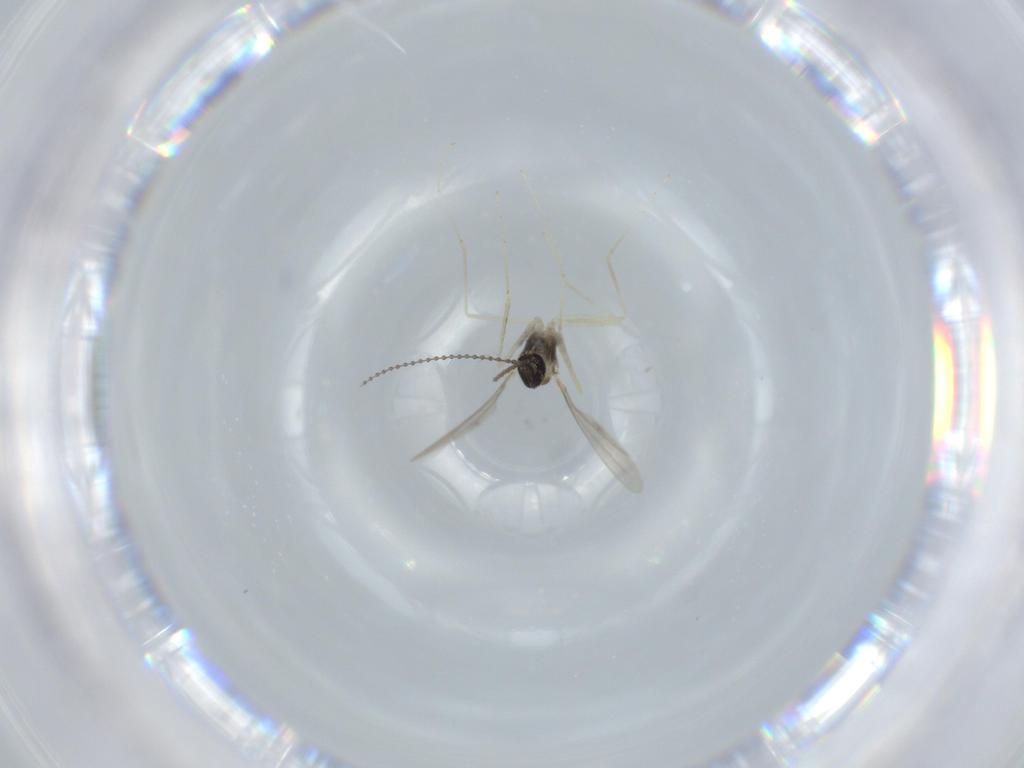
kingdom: Animalia
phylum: Arthropoda
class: Insecta
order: Diptera
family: Cecidomyiidae
